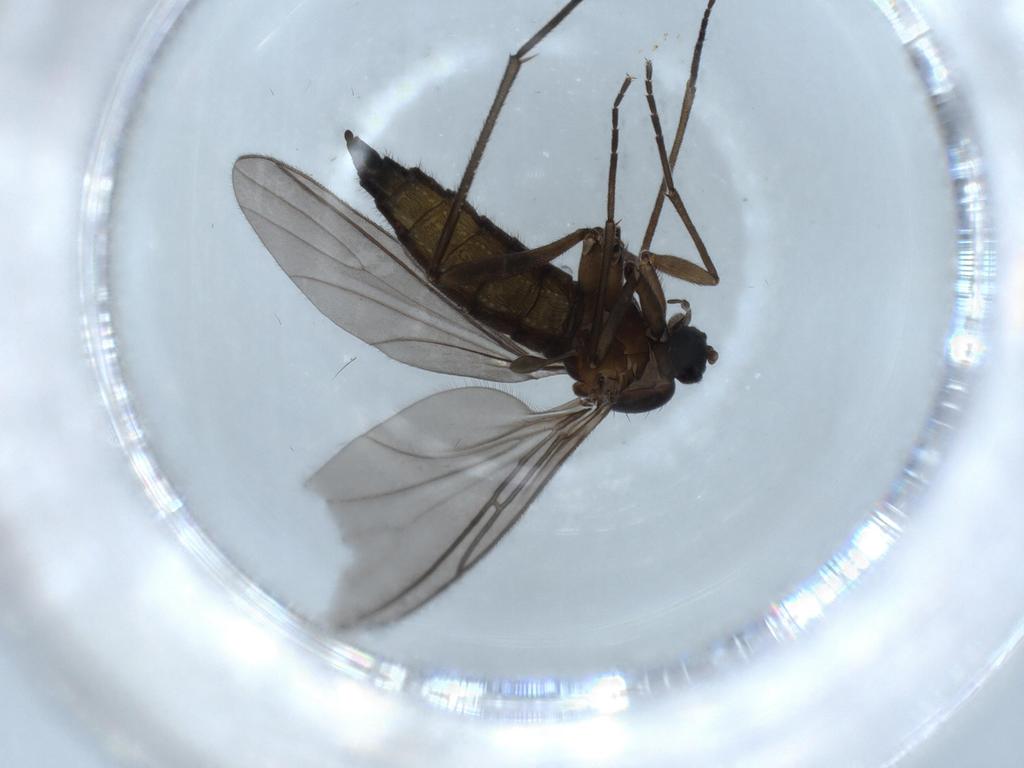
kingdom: Animalia
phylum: Arthropoda
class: Insecta
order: Diptera
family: Sciaridae
